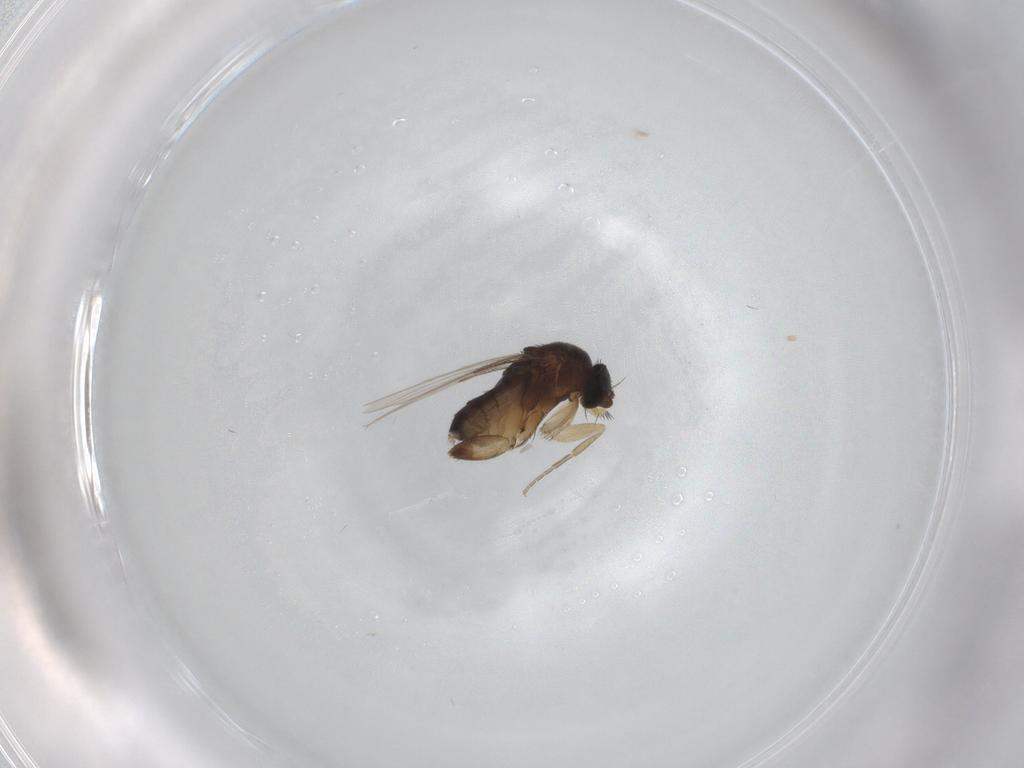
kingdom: Animalia
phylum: Arthropoda
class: Insecta
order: Diptera
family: Phoridae
